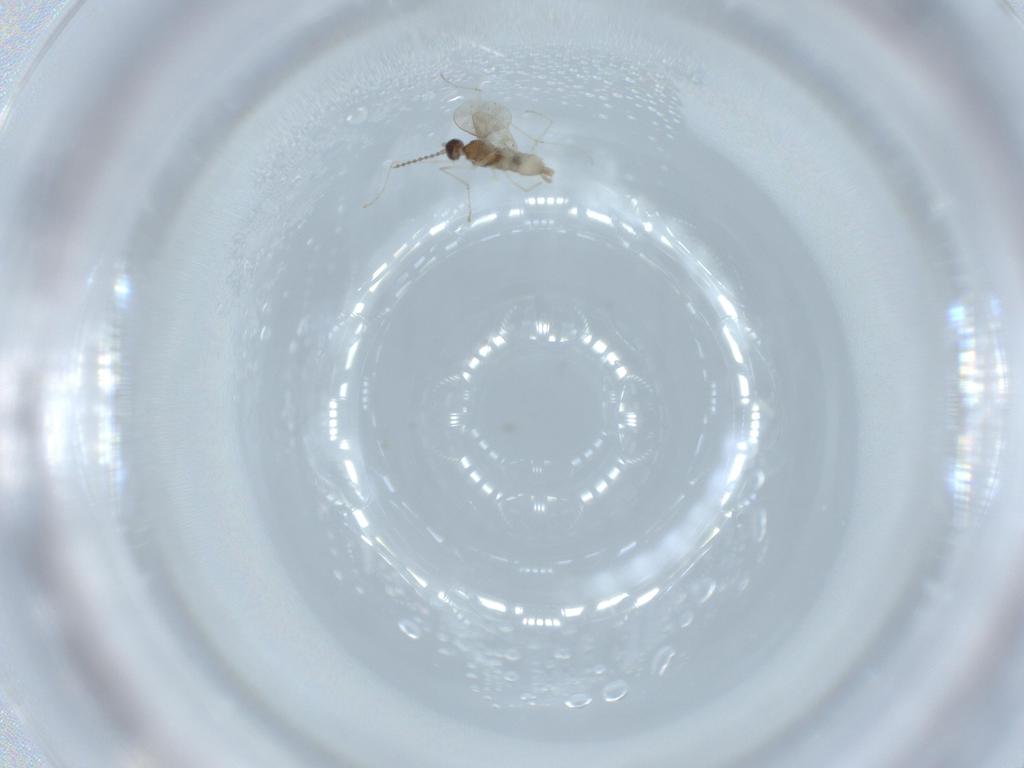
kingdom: Animalia
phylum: Arthropoda
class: Insecta
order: Diptera
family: Cecidomyiidae
